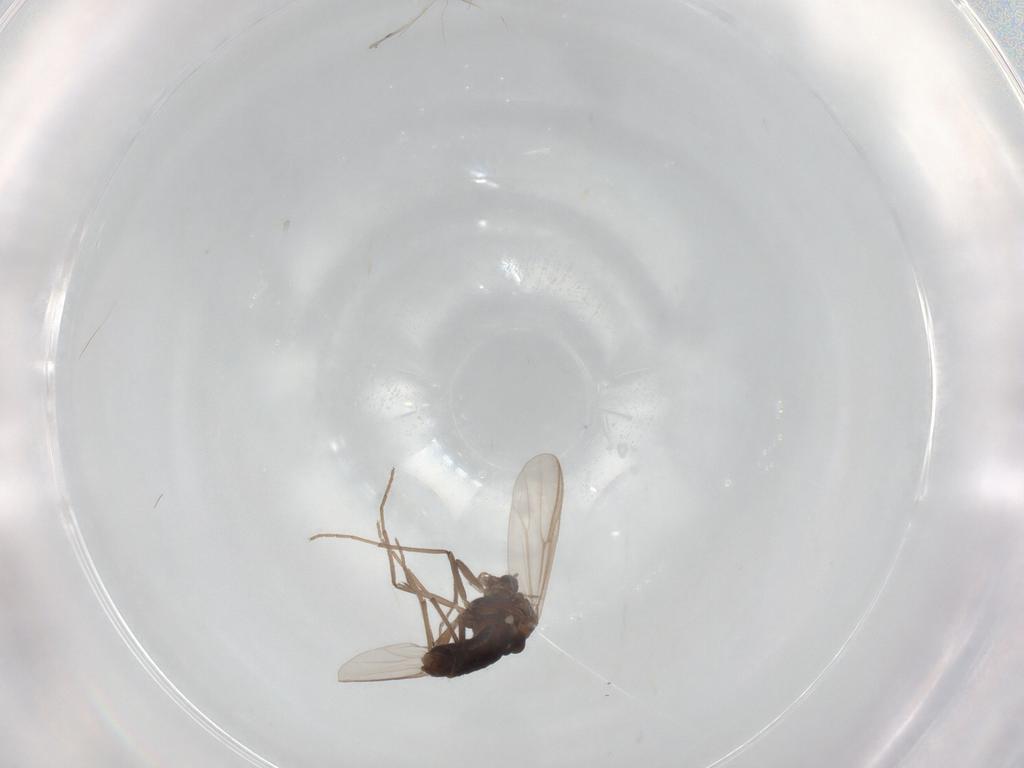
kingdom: Animalia
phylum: Arthropoda
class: Insecta
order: Diptera
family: Chironomidae
